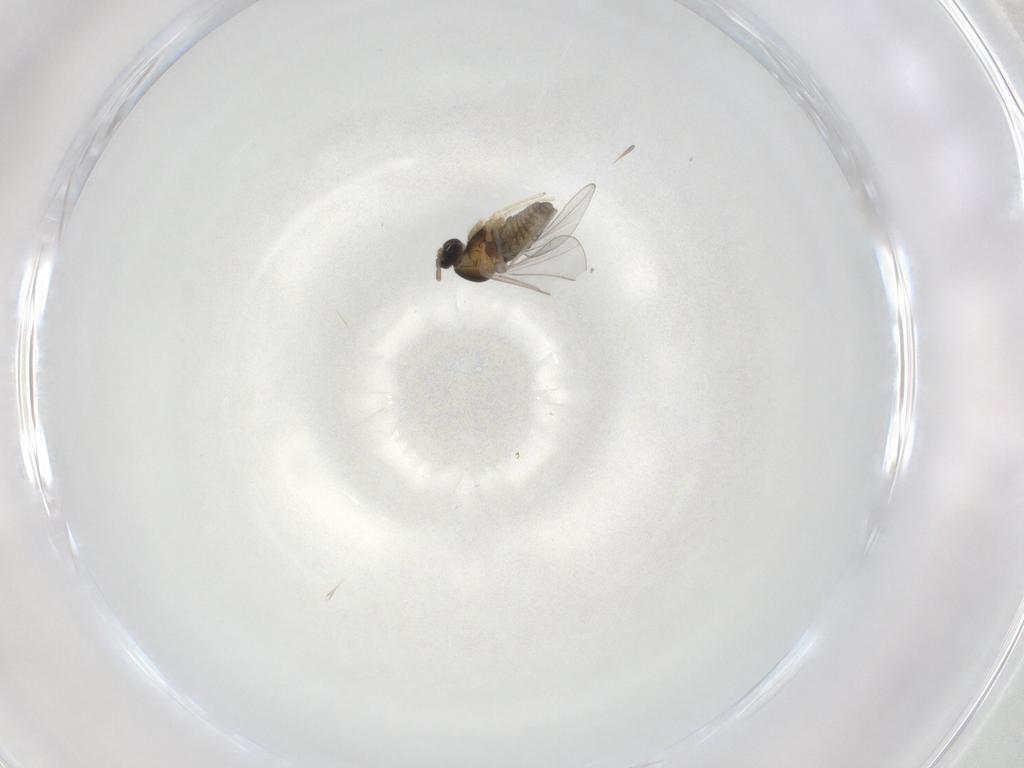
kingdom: Animalia
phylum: Arthropoda
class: Insecta
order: Diptera
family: Cecidomyiidae
